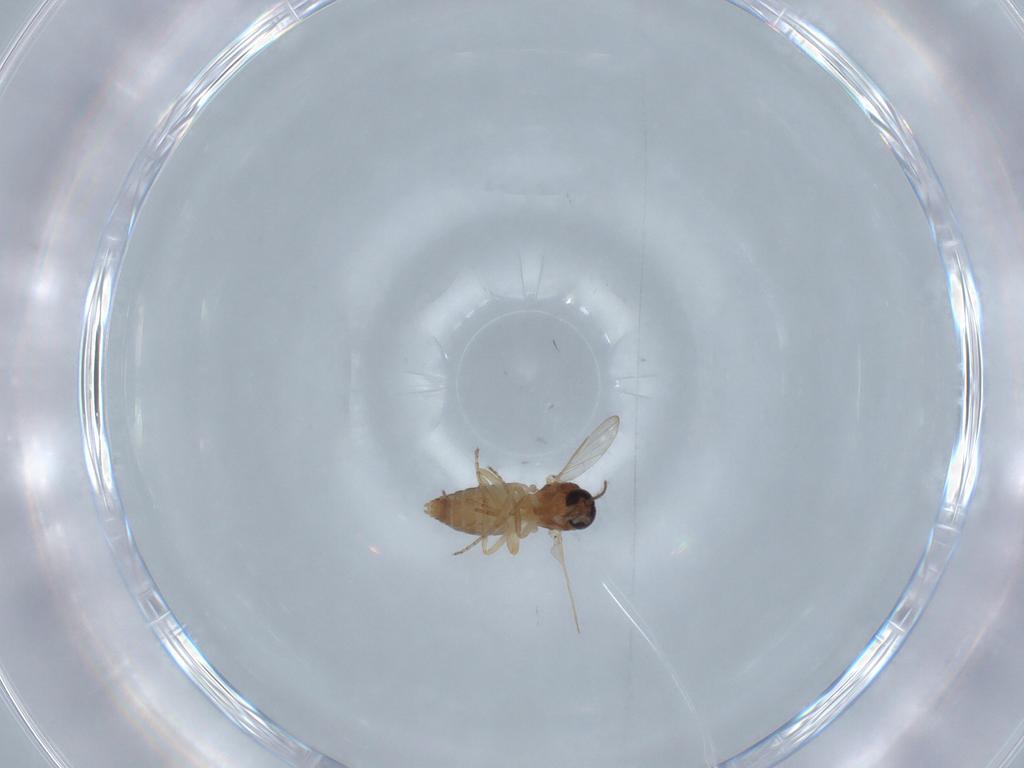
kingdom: Animalia
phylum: Arthropoda
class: Insecta
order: Diptera
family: Ceratopogonidae
